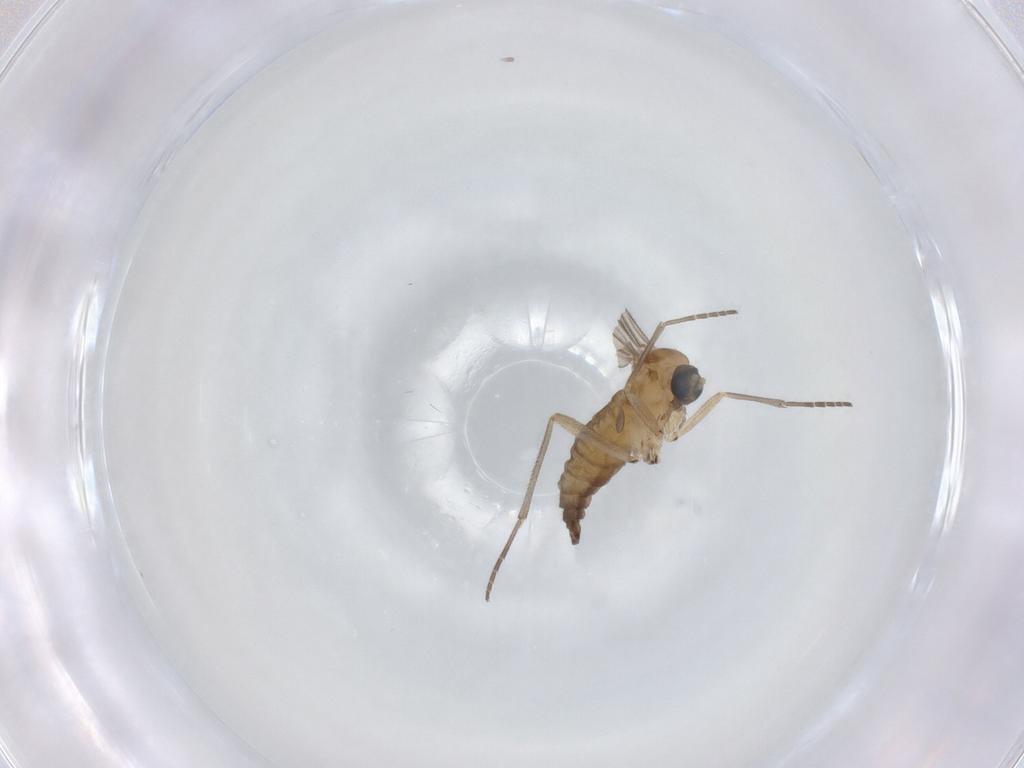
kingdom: Animalia
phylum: Arthropoda
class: Insecta
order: Diptera
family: Sciaridae
